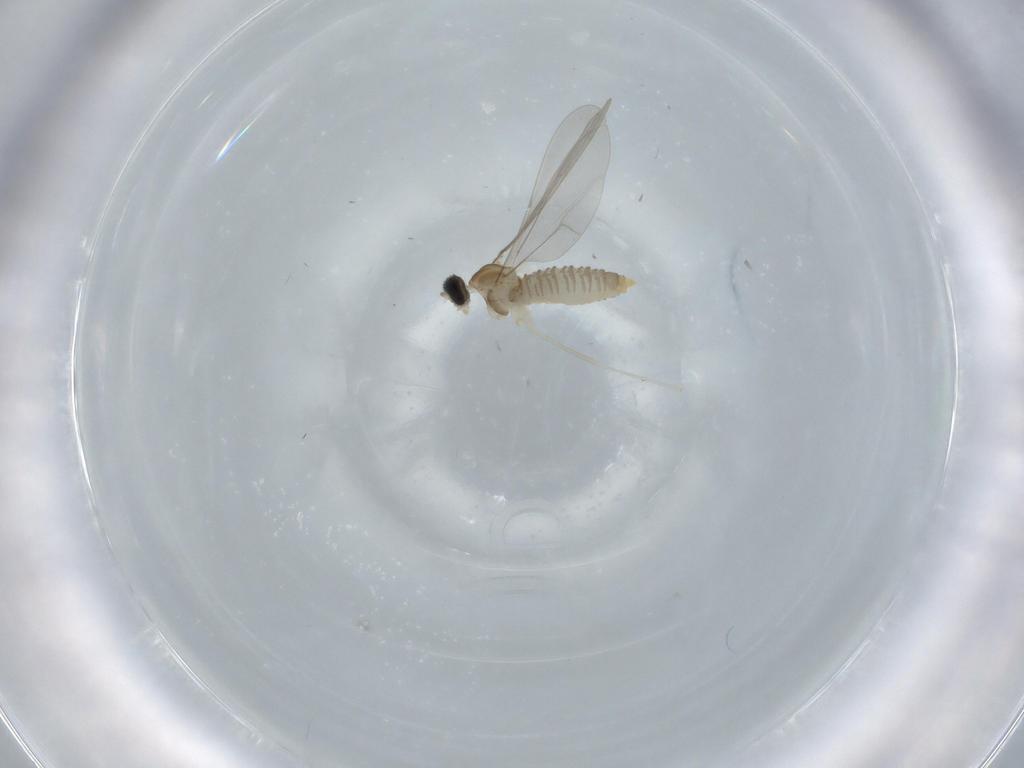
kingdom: Animalia
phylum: Arthropoda
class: Insecta
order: Diptera
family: Cecidomyiidae
